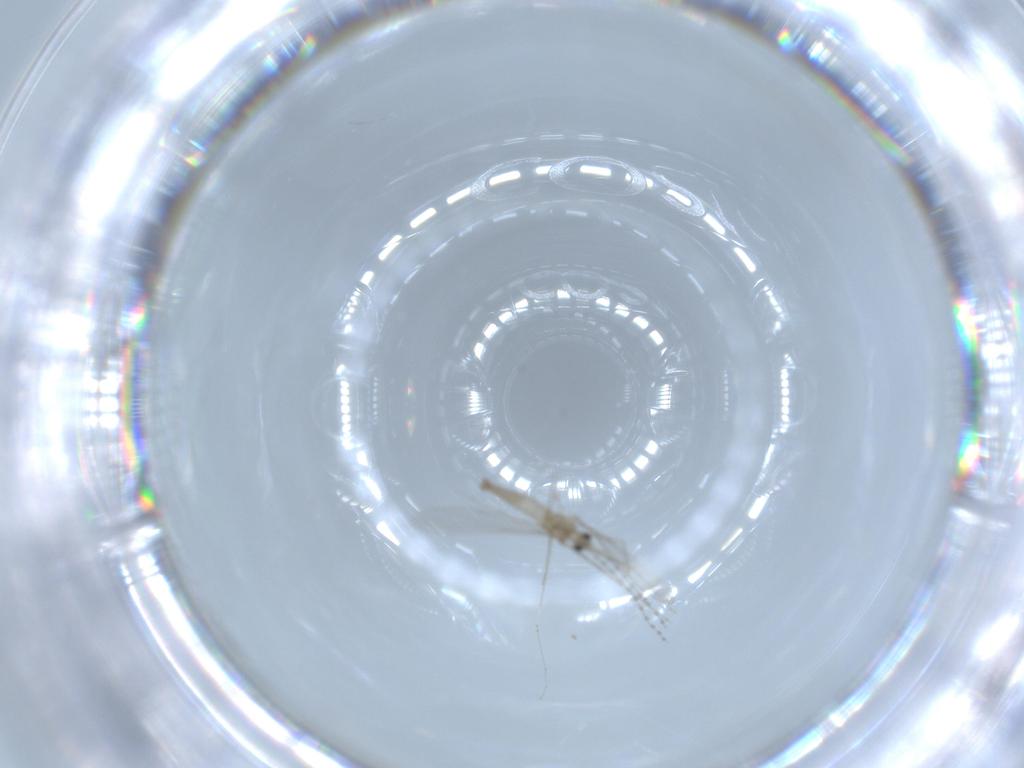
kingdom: Animalia
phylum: Arthropoda
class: Insecta
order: Diptera
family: Cecidomyiidae
